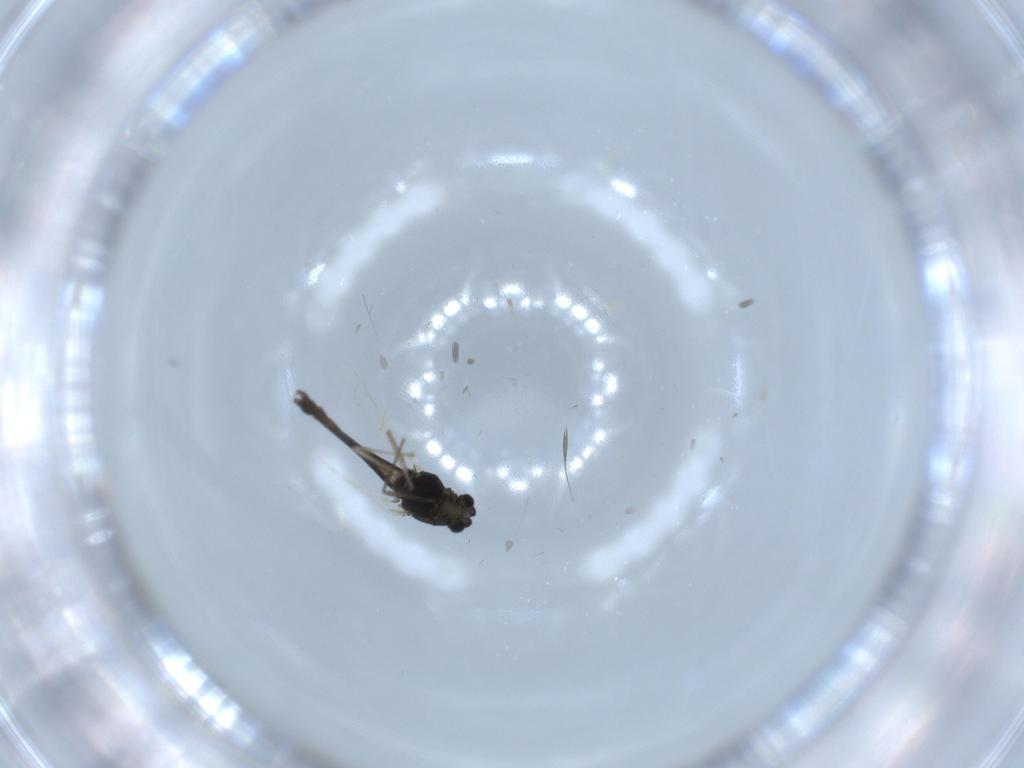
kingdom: Animalia
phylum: Arthropoda
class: Insecta
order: Diptera
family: Chironomidae
